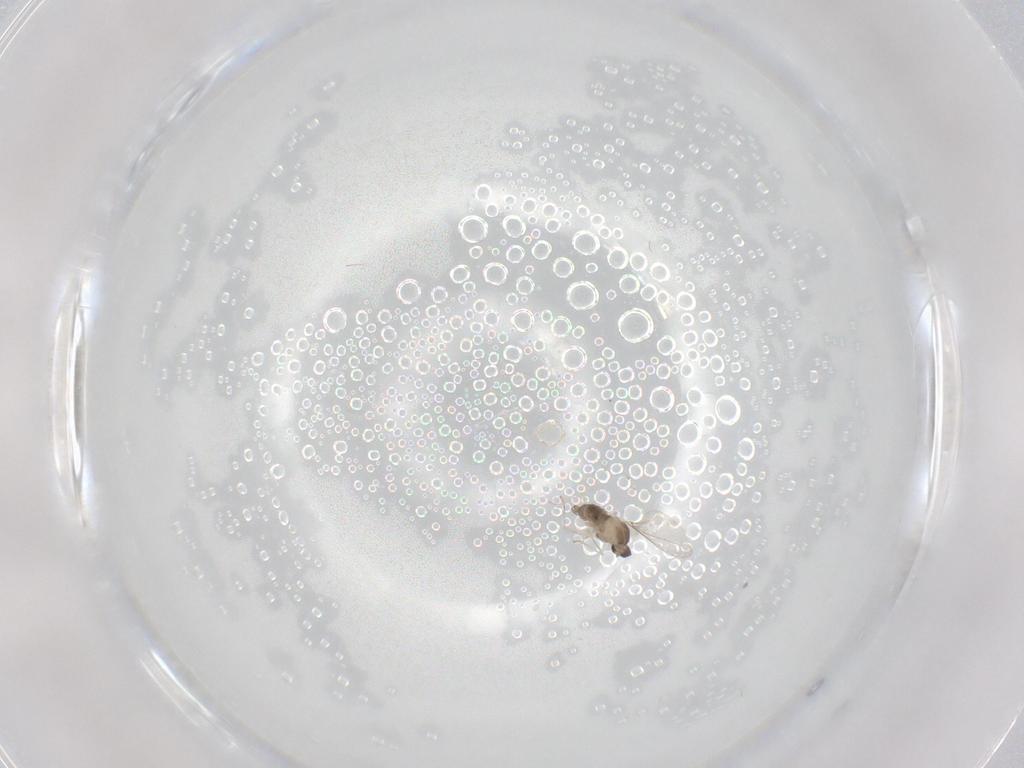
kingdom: Animalia
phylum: Arthropoda
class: Insecta
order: Diptera
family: Cecidomyiidae
